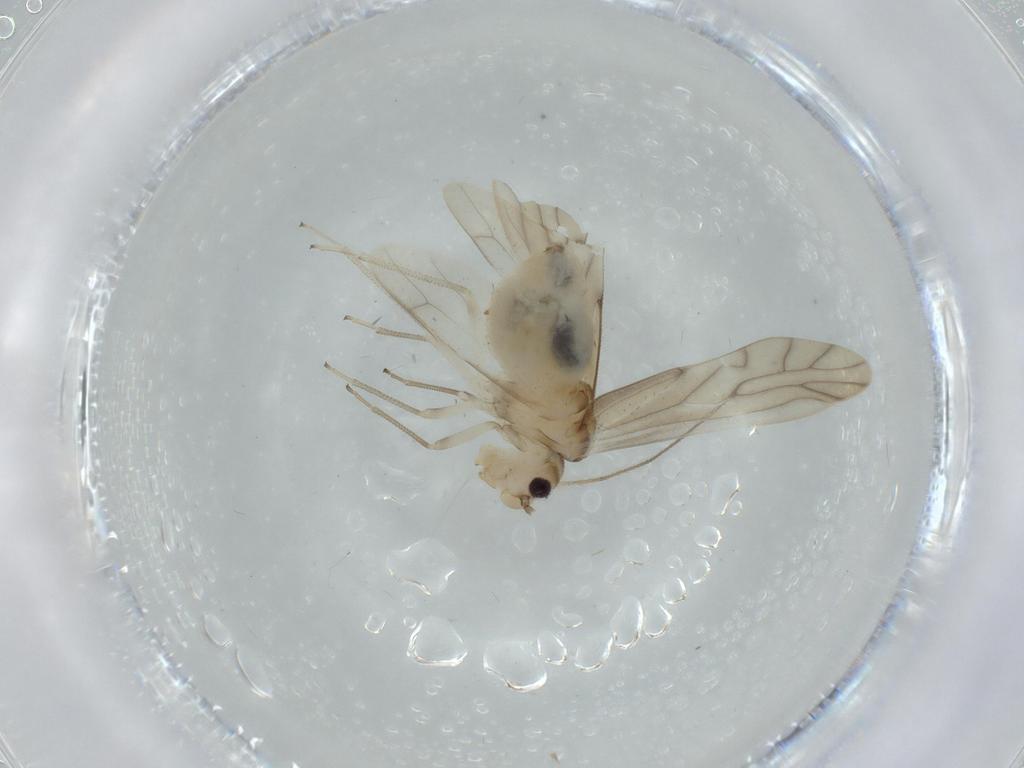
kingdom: Animalia
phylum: Arthropoda
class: Insecta
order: Psocodea
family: Caeciliusidae
